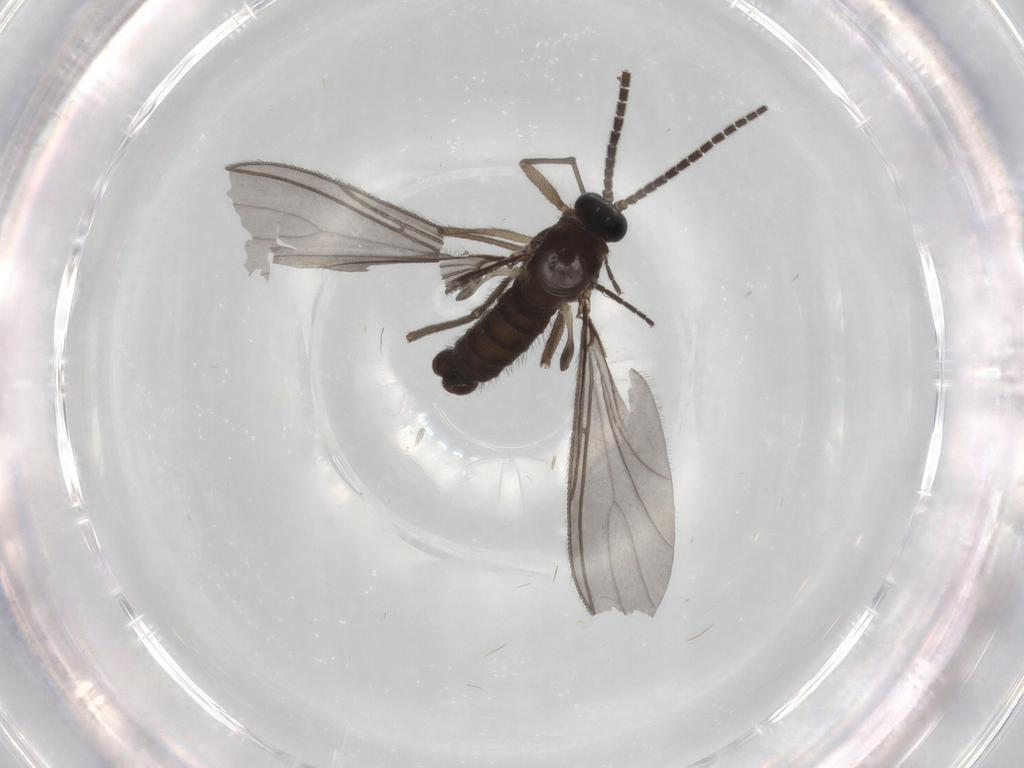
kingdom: Animalia
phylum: Arthropoda
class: Insecta
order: Diptera
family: Sciaridae
